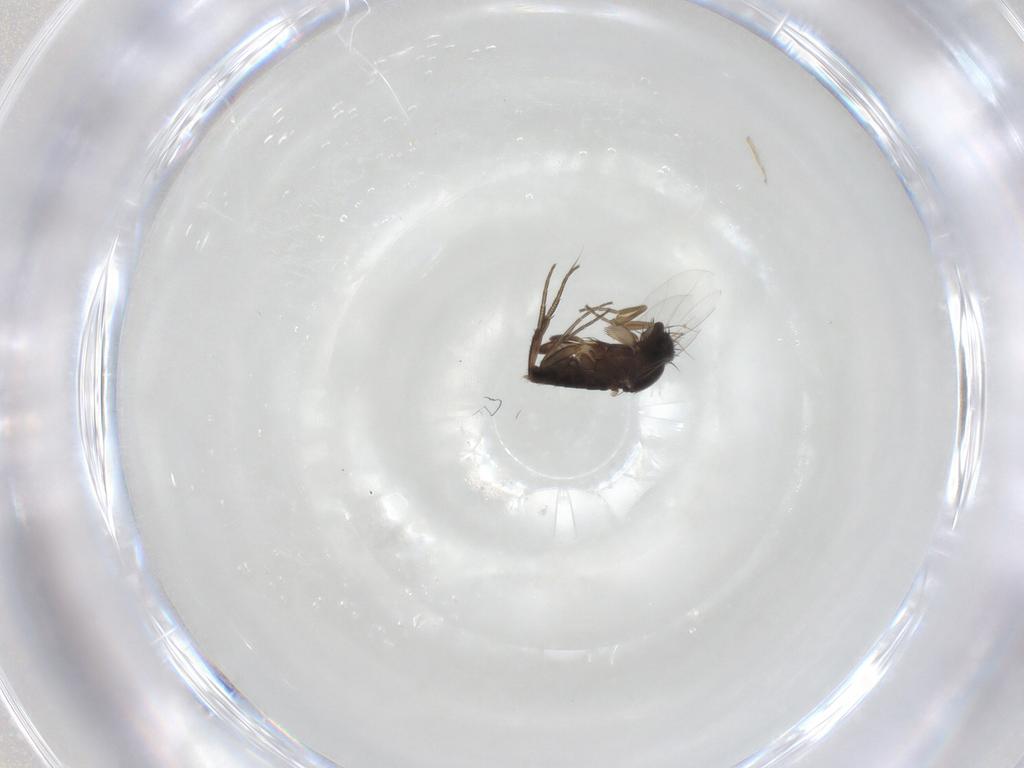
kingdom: Animalia
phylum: Arthropoda
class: Insecta
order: Diptera
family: Phoridae
